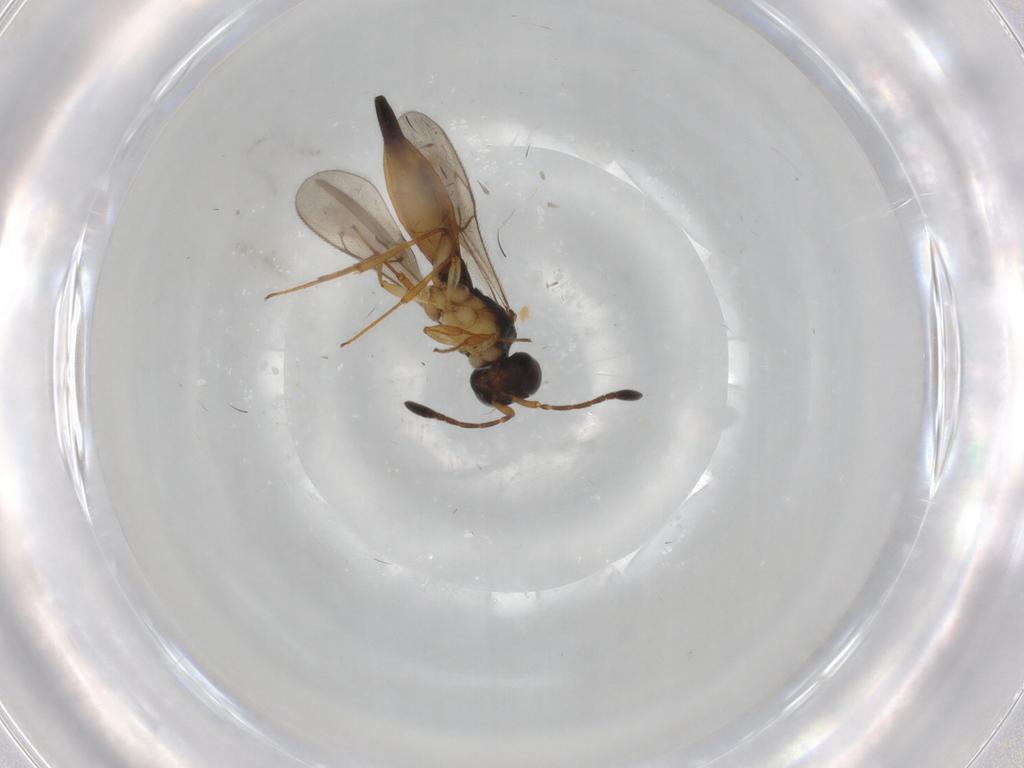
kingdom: Animalia
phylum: Arthropoda
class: Insecta
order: Hymenoptera
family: Scelionidae
